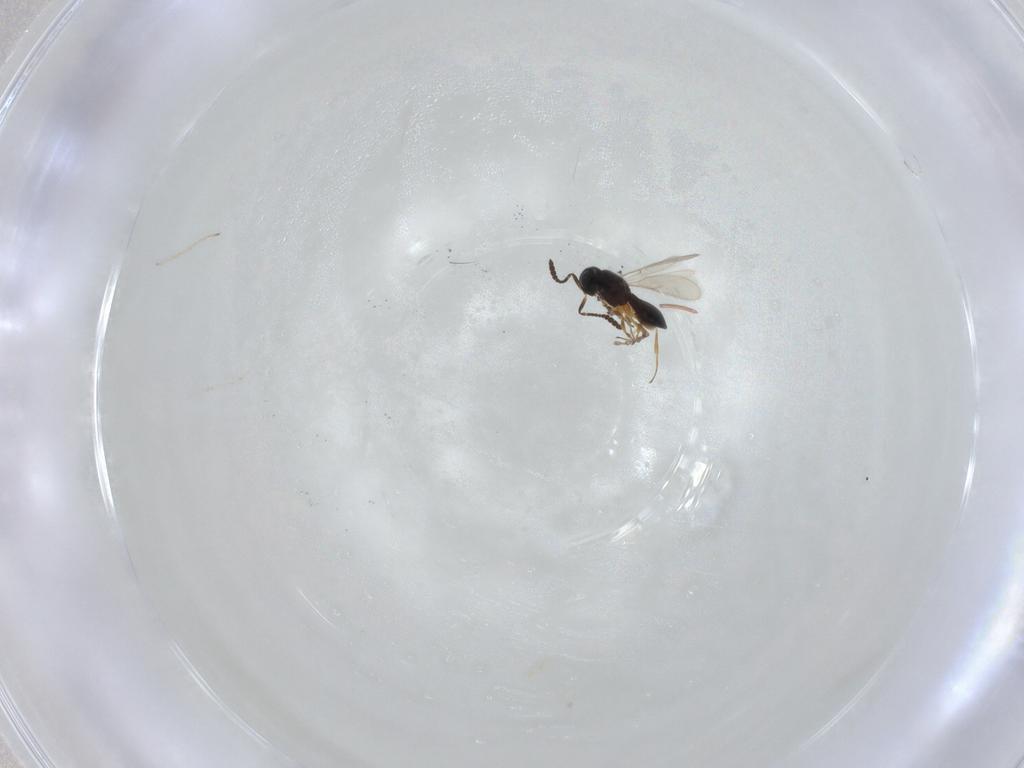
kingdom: Animalia
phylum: Arthropoda
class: Insecta
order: Hymenoptera
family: Scelionidae
